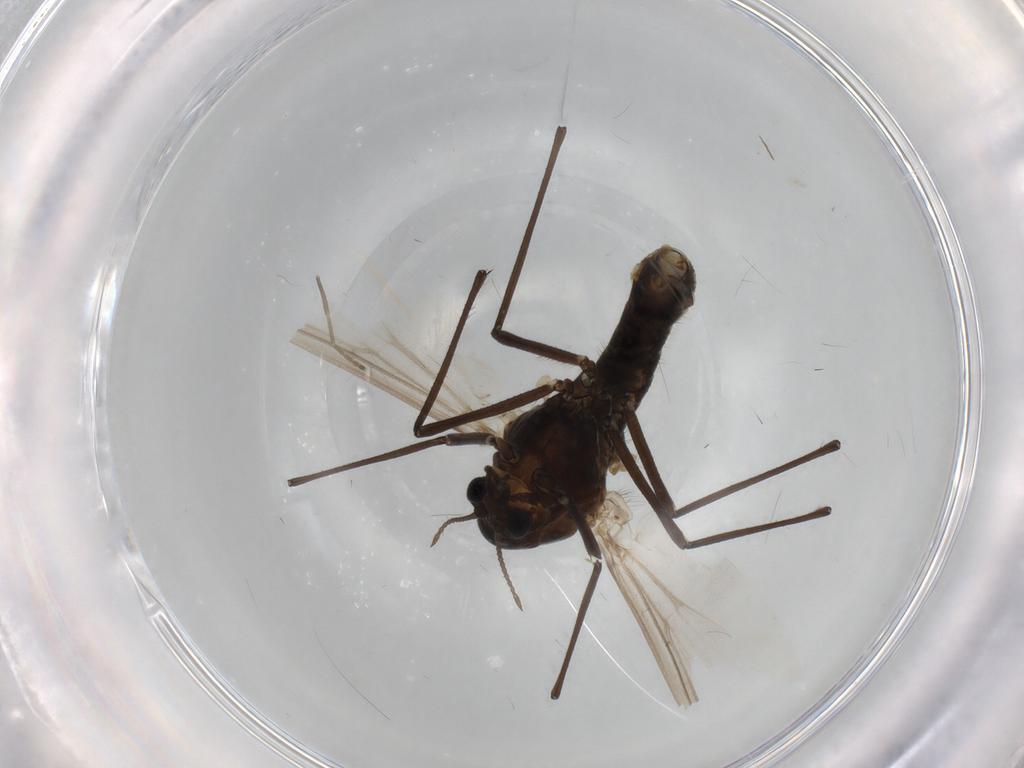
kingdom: Animalia
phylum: Arthropoda
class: Insecta
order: Diptera
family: Chironomidae
